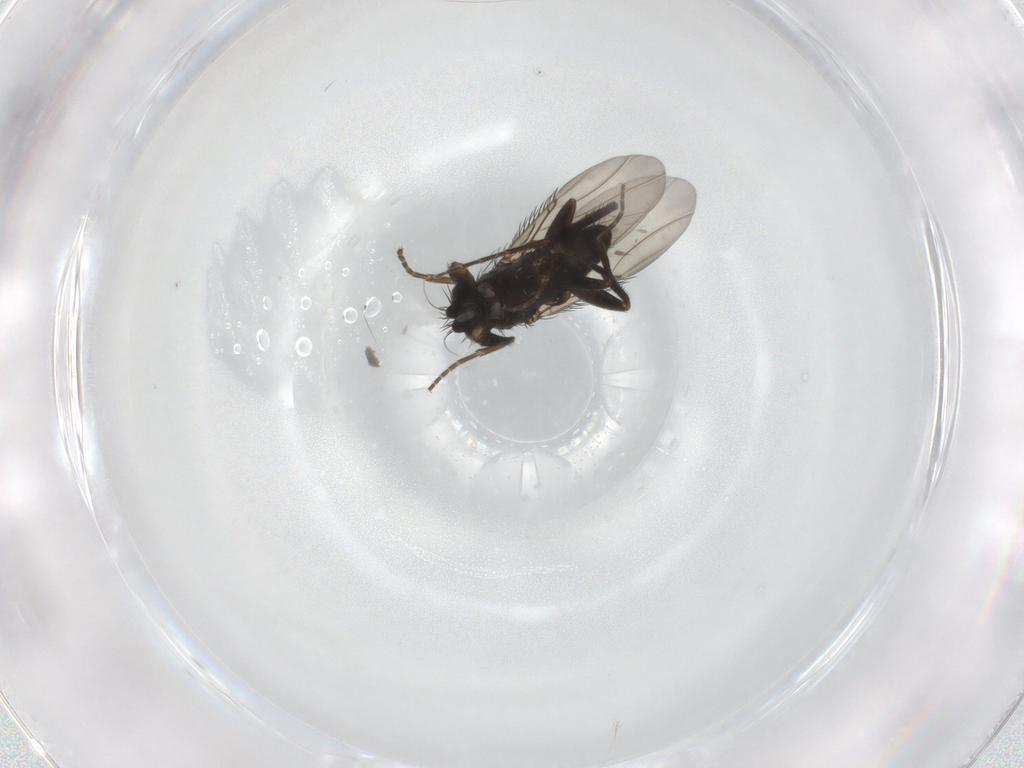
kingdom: Animalia
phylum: Arthropoda
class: Insecta
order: Diptera
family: Phoridae
